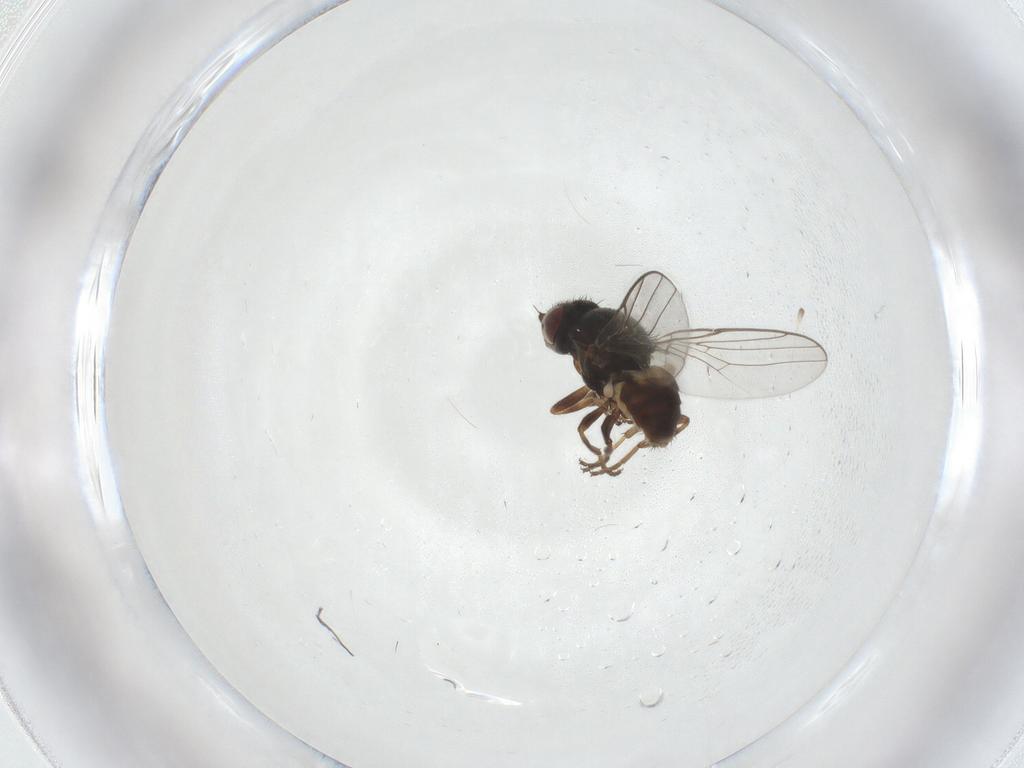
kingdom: Animalia
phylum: Arthropoda
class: Insecta
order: Diptera
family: Chloropidae
